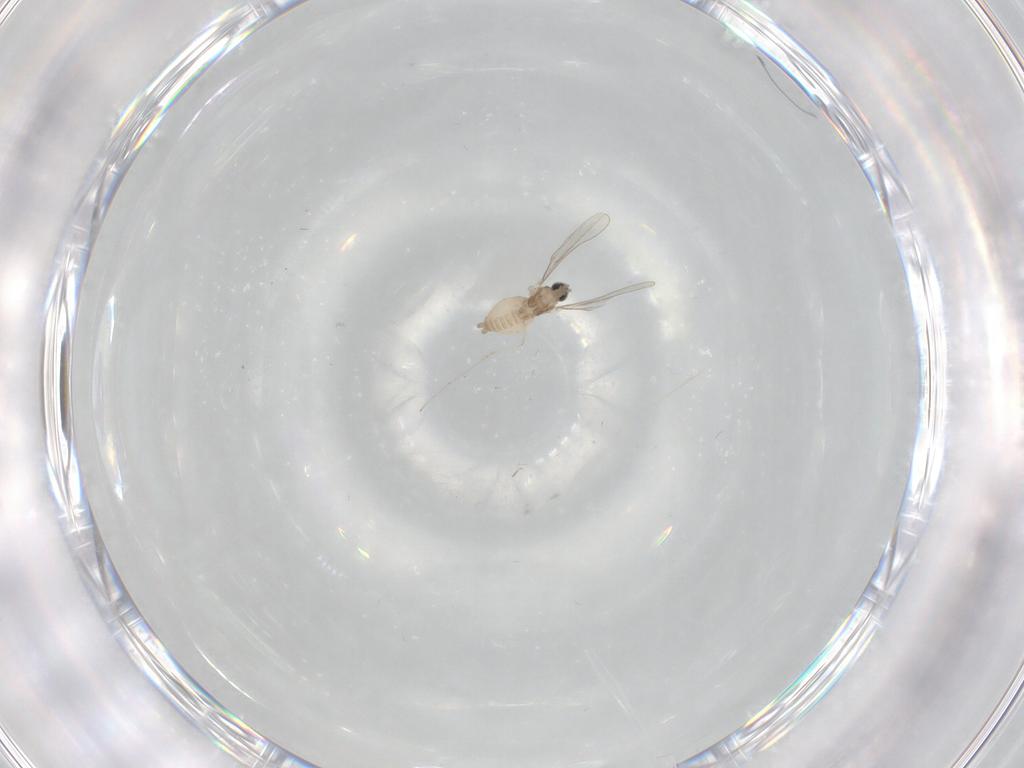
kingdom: Animalia
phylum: Arthropoda
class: Insecta
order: Diptera
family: Cecidomyiidae
